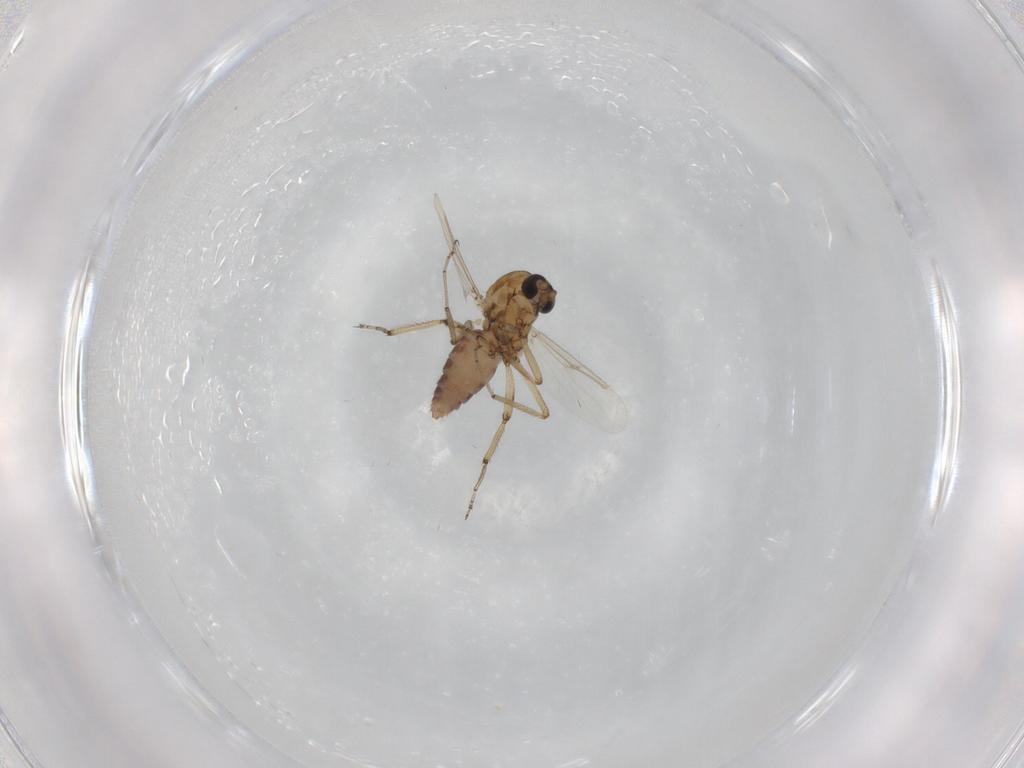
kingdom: Animalia
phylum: Arthropoda
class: Insecta
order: Diptera
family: Ceratopogonidae
